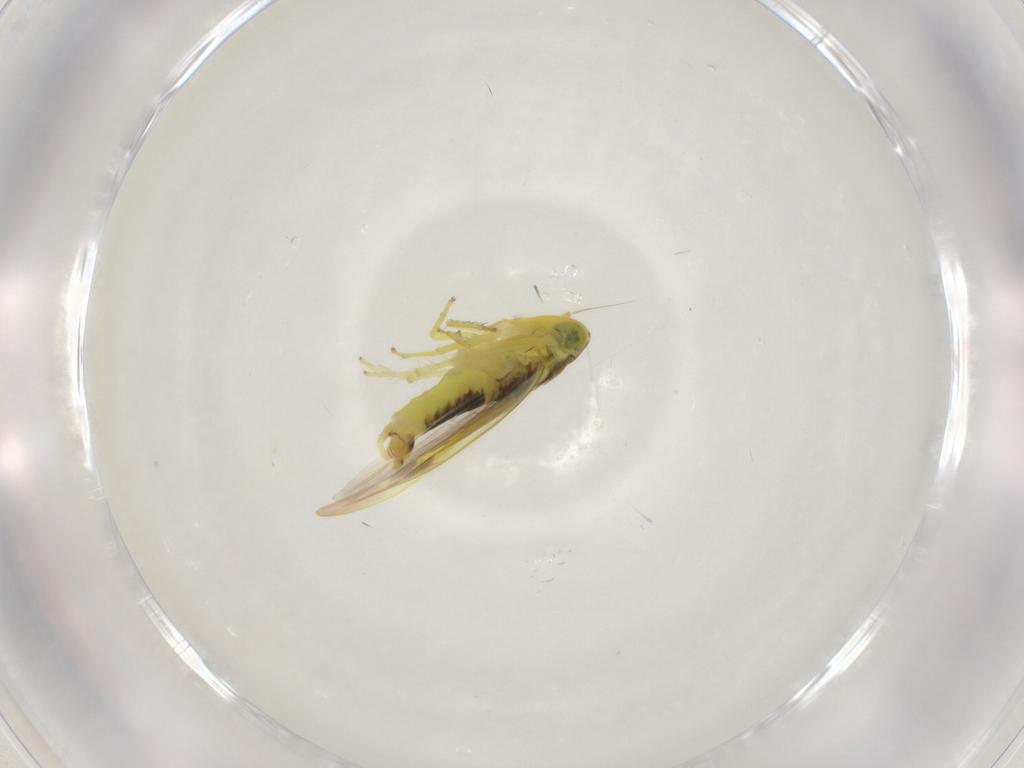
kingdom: Animalia
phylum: Arthropoda
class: Insecta
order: Hemiptera
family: Cicadellidae
